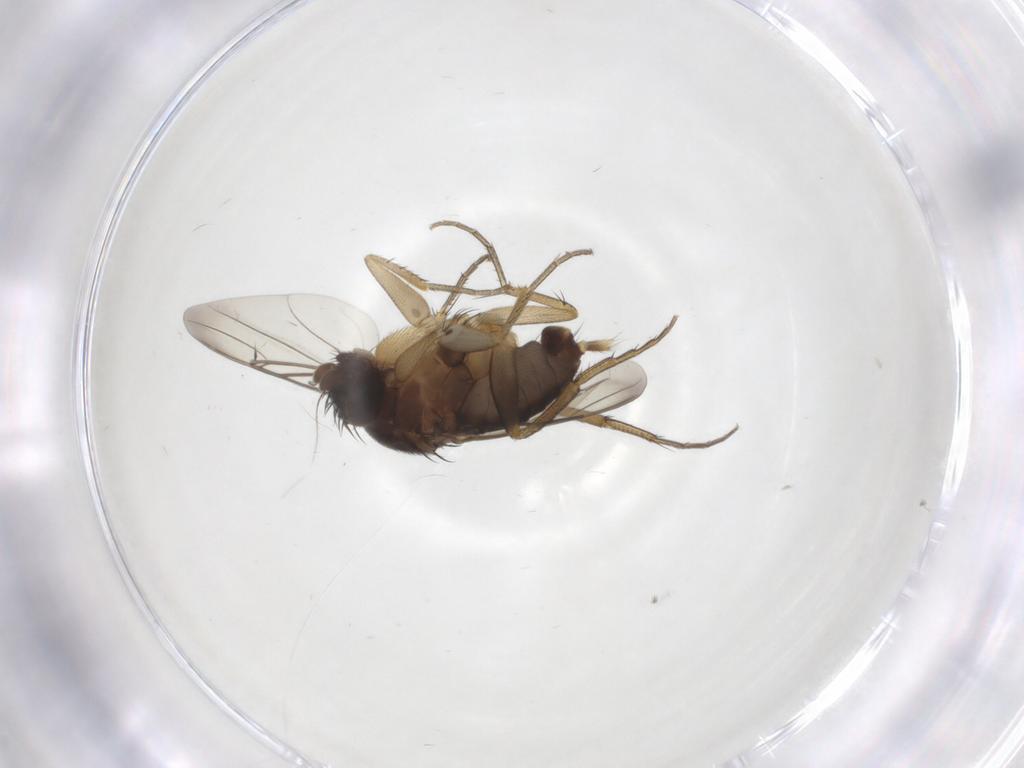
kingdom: Animalia
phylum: Arthropoda
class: Insecta
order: Diptera
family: Phoridae
